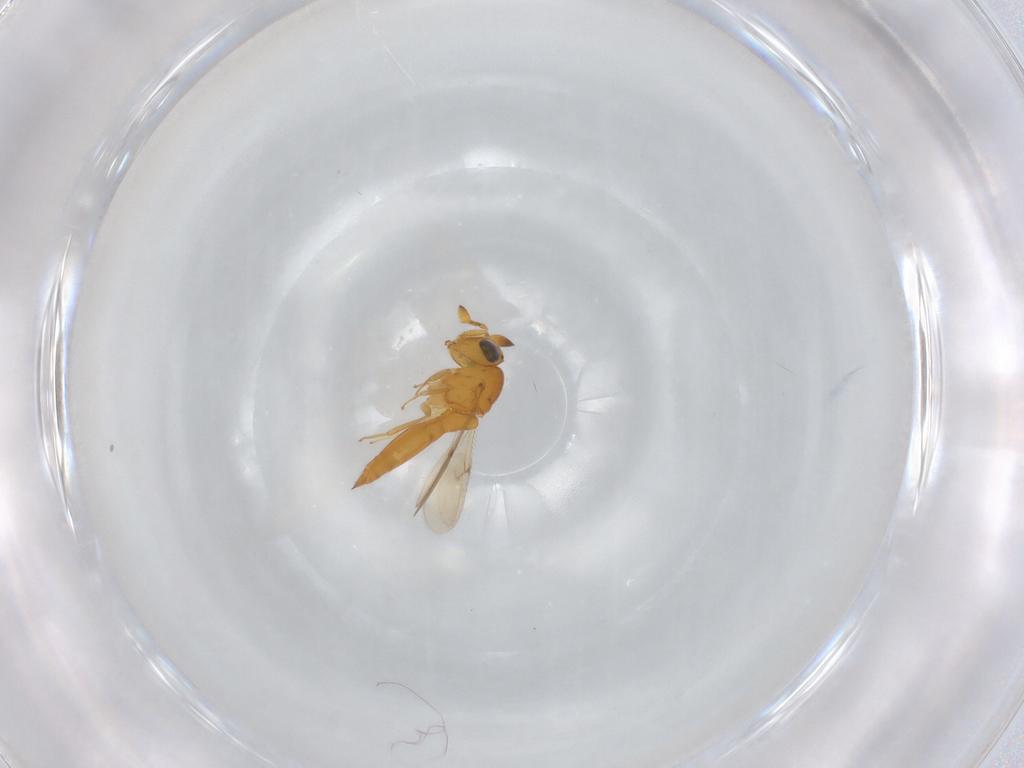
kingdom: Animalia
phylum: Arthropoda
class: Insecta
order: Hymenoptera
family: Scelionidae
